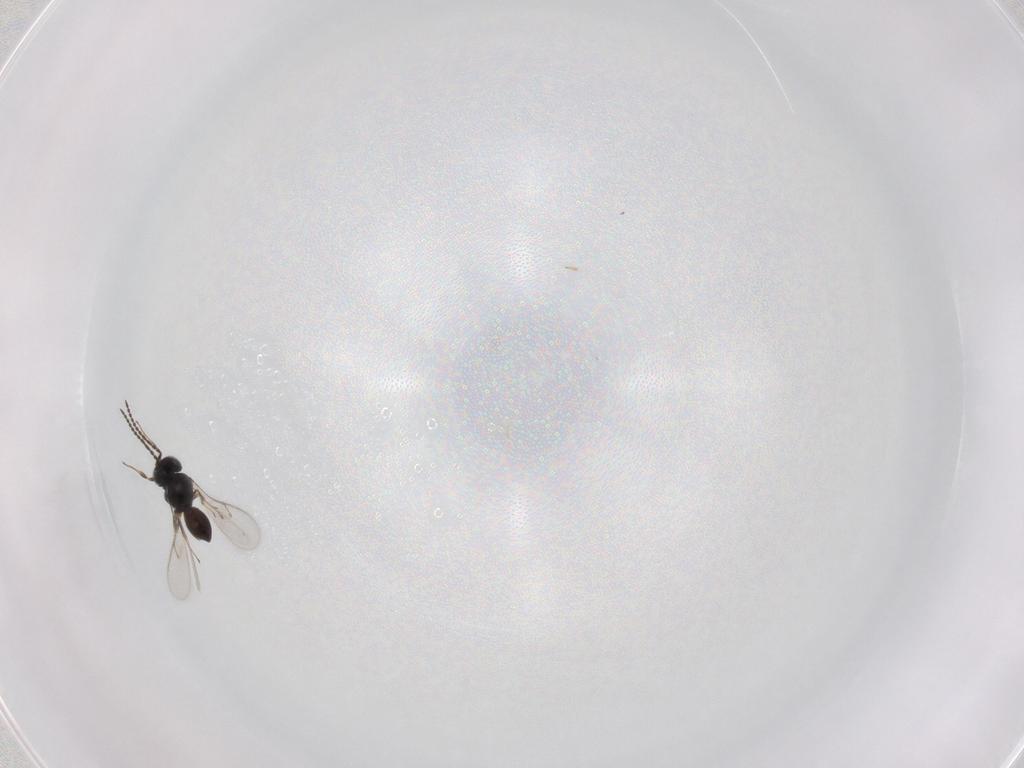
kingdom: Animalia
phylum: Arthropoda
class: Insecta
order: Hymenoptera
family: Scelionidae
